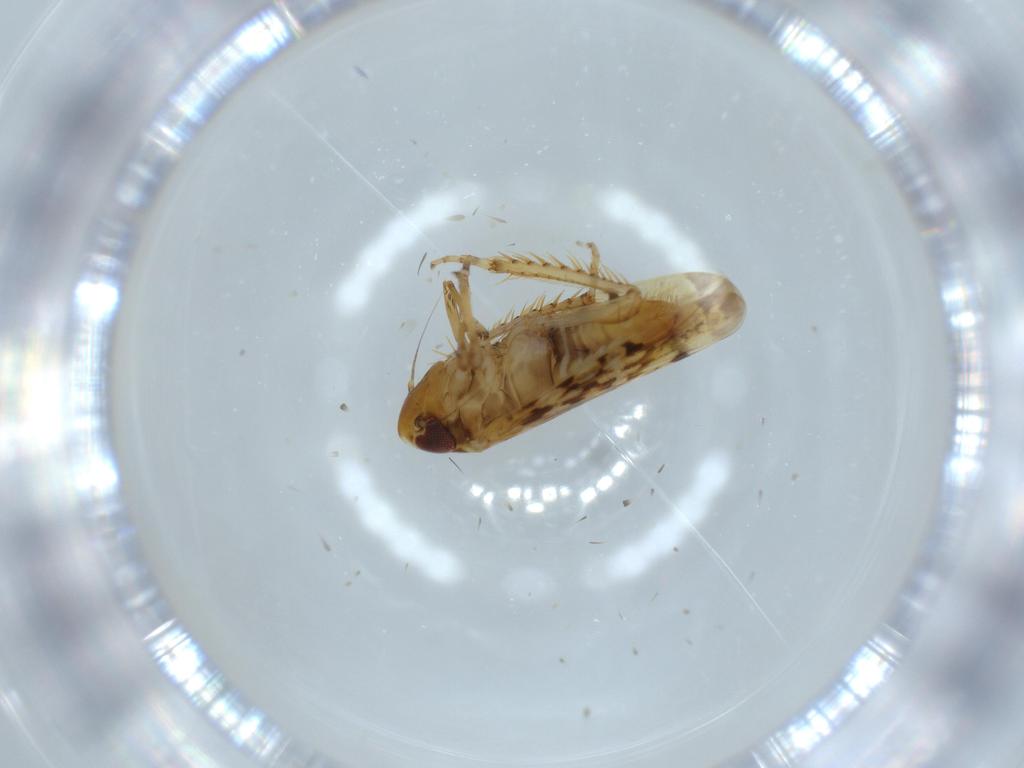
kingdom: Animalia
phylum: Arthropoda
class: Insecta
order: Hemiptera
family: Cicadellidae
